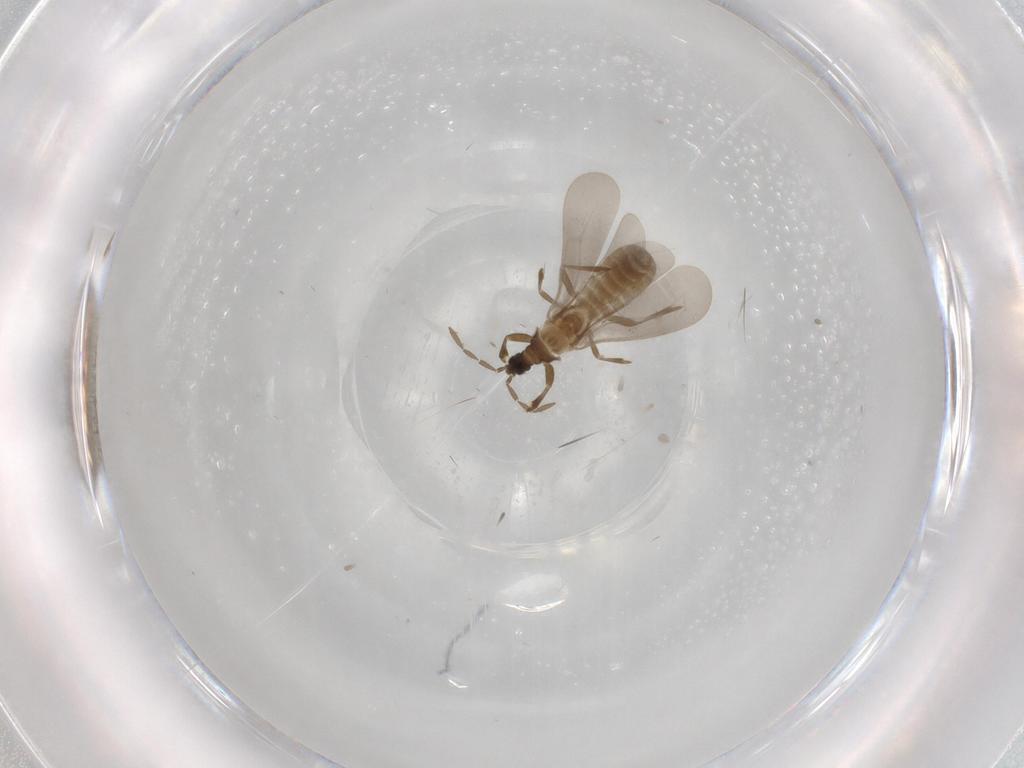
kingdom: Animalia
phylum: Arthropoda
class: Insecta
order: Hemiptera
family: Enicocephalidae
